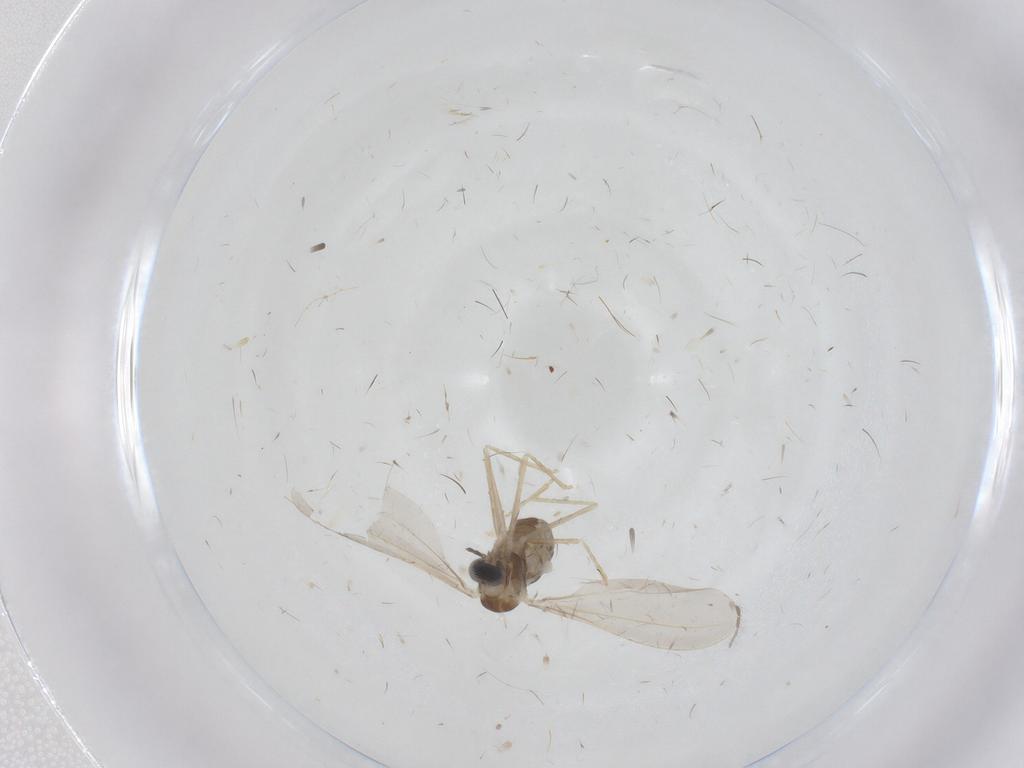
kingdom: Animalia
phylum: Arthropoda
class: Insecta
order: Diptera
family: Cecidomyiidae
